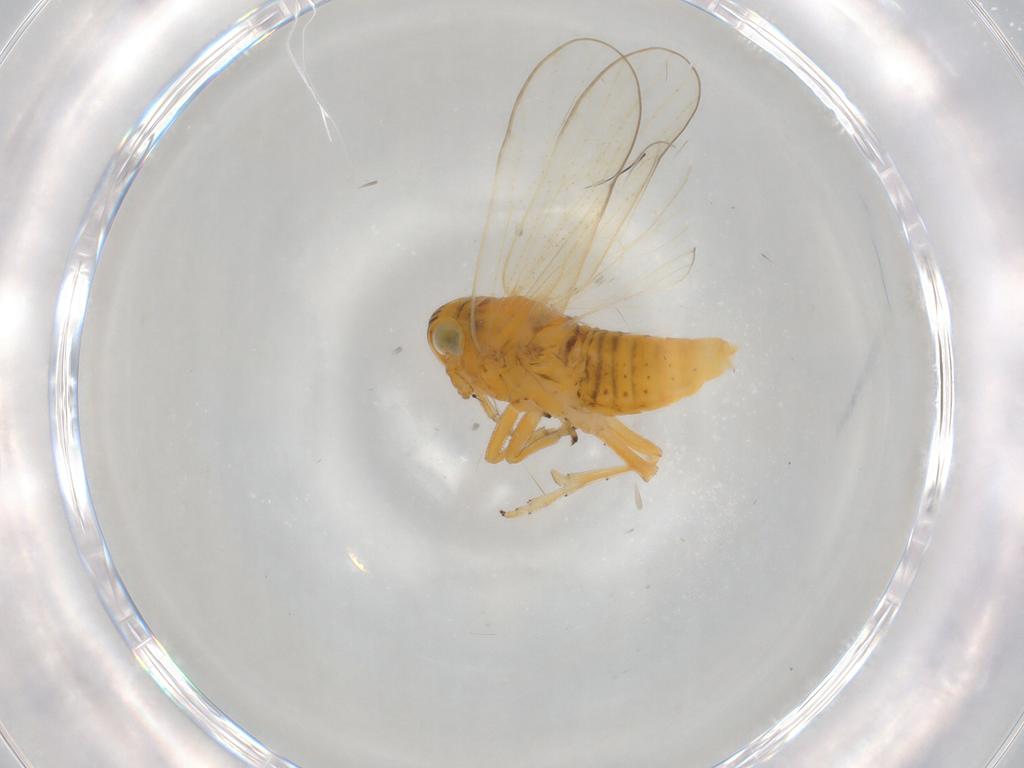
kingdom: Animalia
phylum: Arthropoda
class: Insecta
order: Hemiptera
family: Delphacidae
